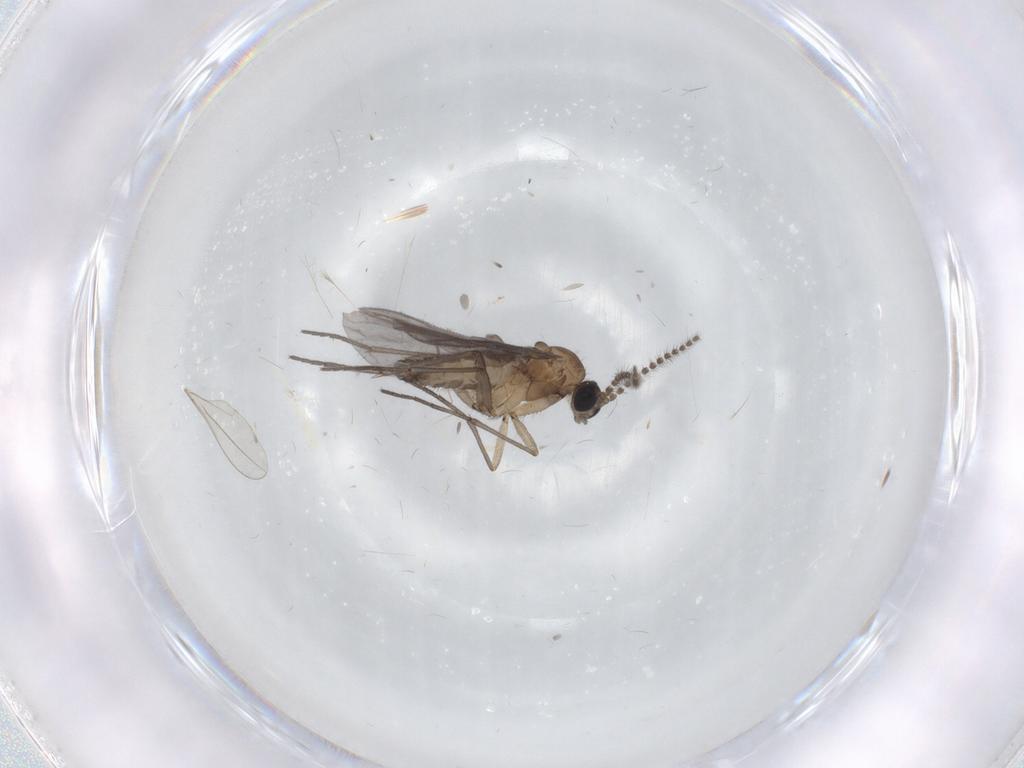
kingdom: Animalia
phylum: Arthropoda
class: Insecta
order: Diptera
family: Sciaridae
